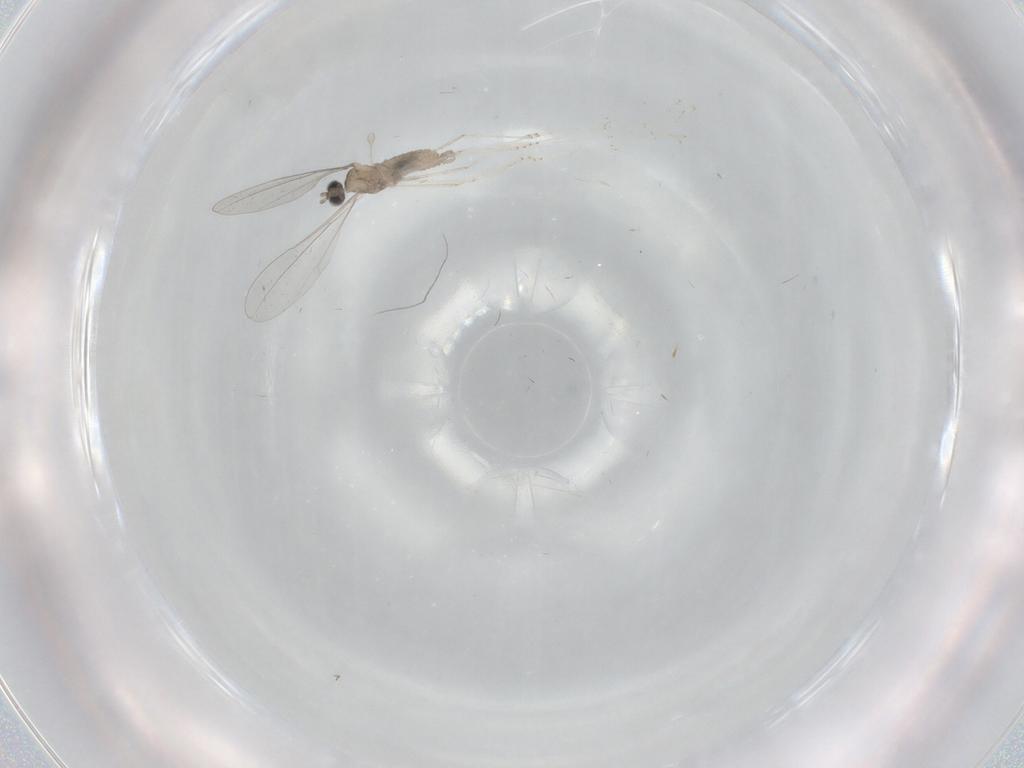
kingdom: Animalia
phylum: Arthropoda
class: Insecta
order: Diptera
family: Cecidomyiidae
